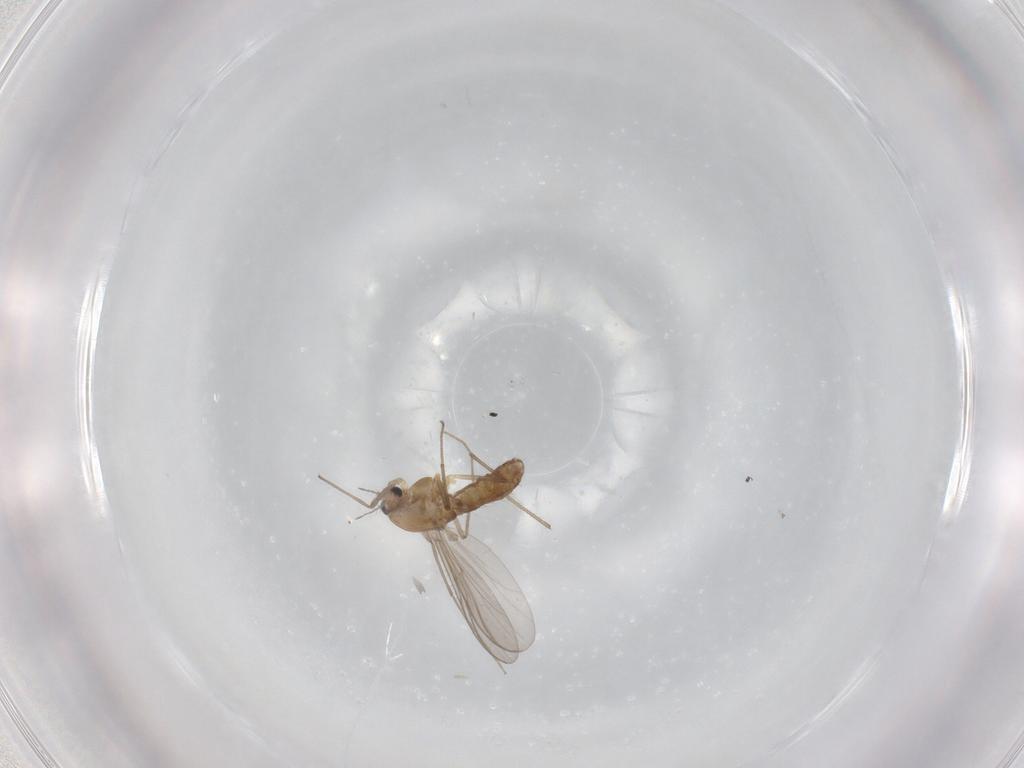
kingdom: Animalia
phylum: Arthropoda
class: Insecta
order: Diptera
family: Chironomidae
